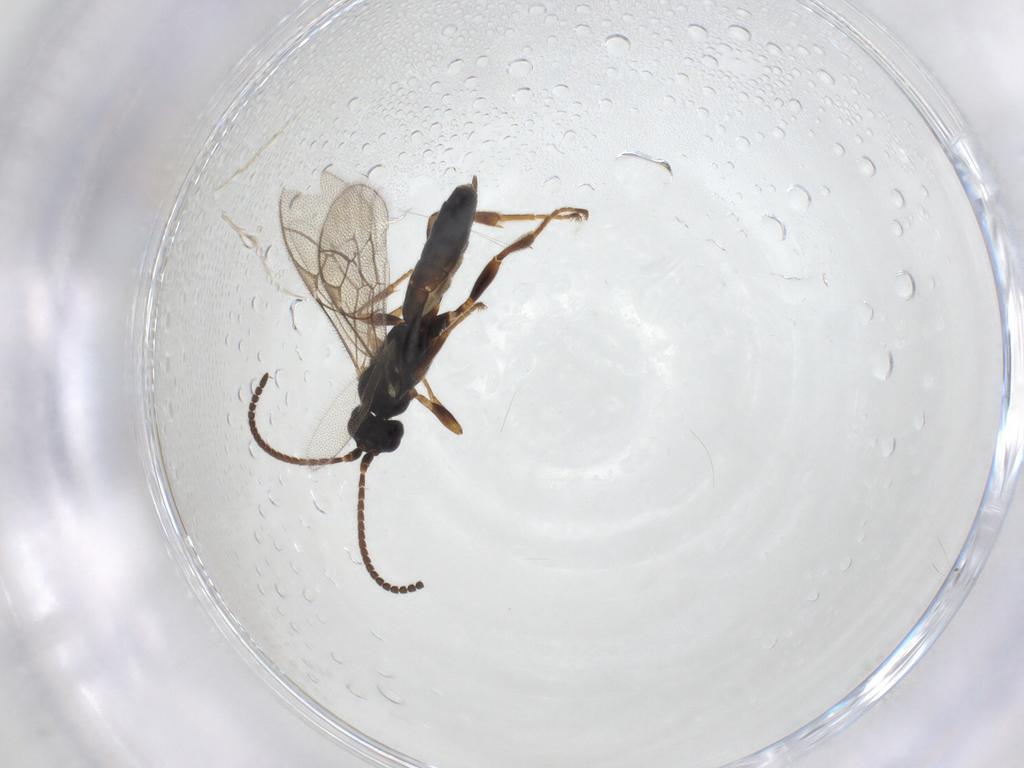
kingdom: Animalia
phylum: Arthropoda
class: Insecta
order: Hymenoptera
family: Ichneumonidae
